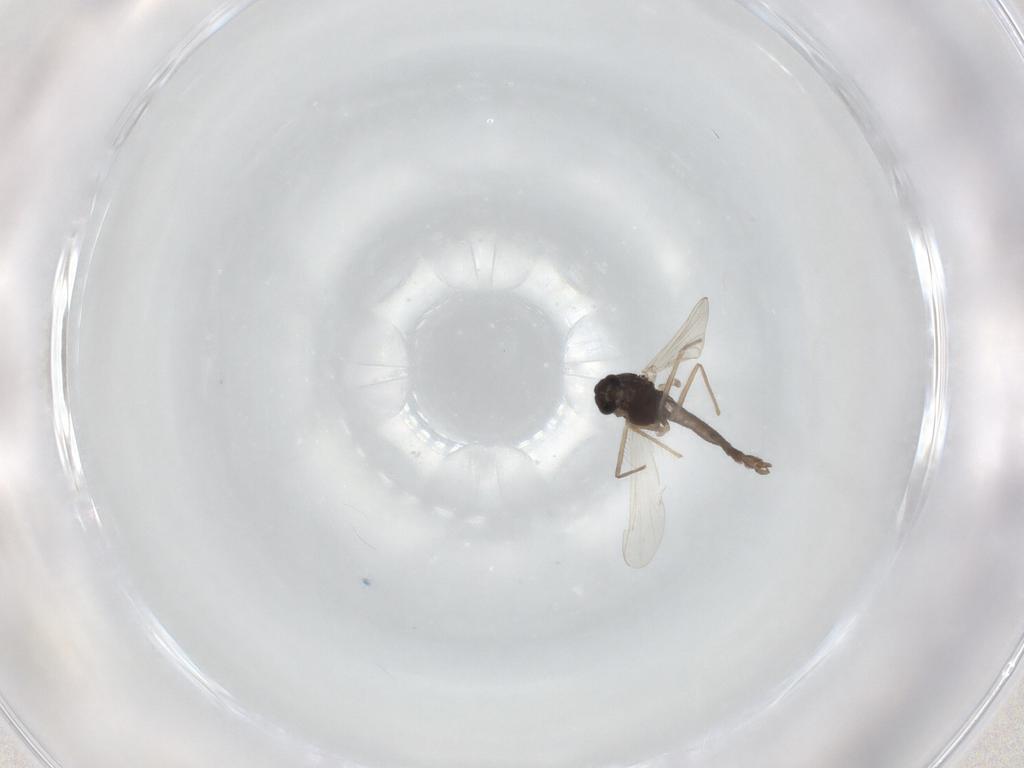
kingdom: Animalia
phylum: Arthropoda
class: Insecta
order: Diptera
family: Chironomidae
